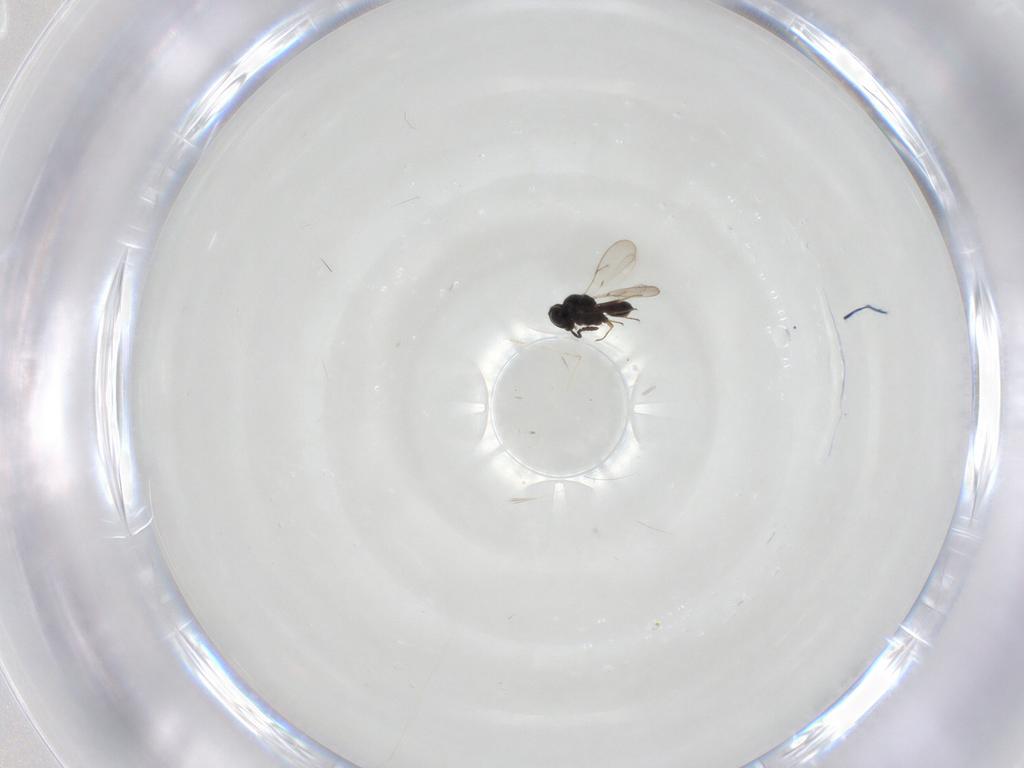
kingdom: Animalia
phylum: Arthropoda
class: Insecta
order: Hymenoptera
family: Scelionidae
